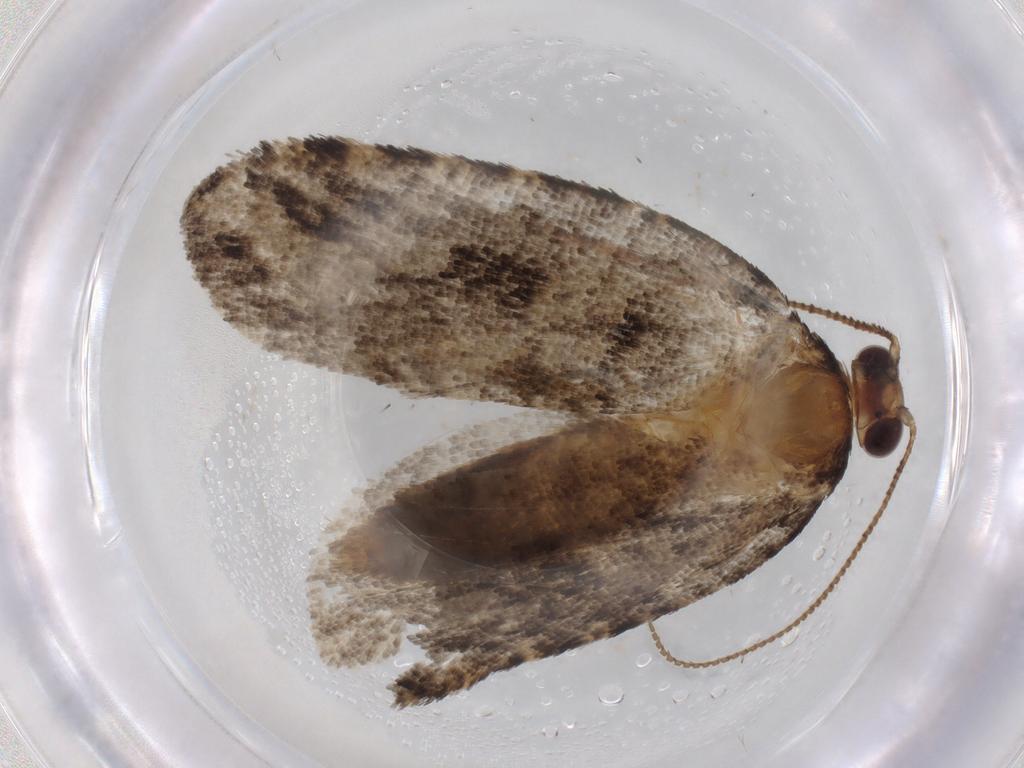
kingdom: Animalia
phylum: Arthropoda
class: Insecta
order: Lepidoptera
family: Tortricidae
